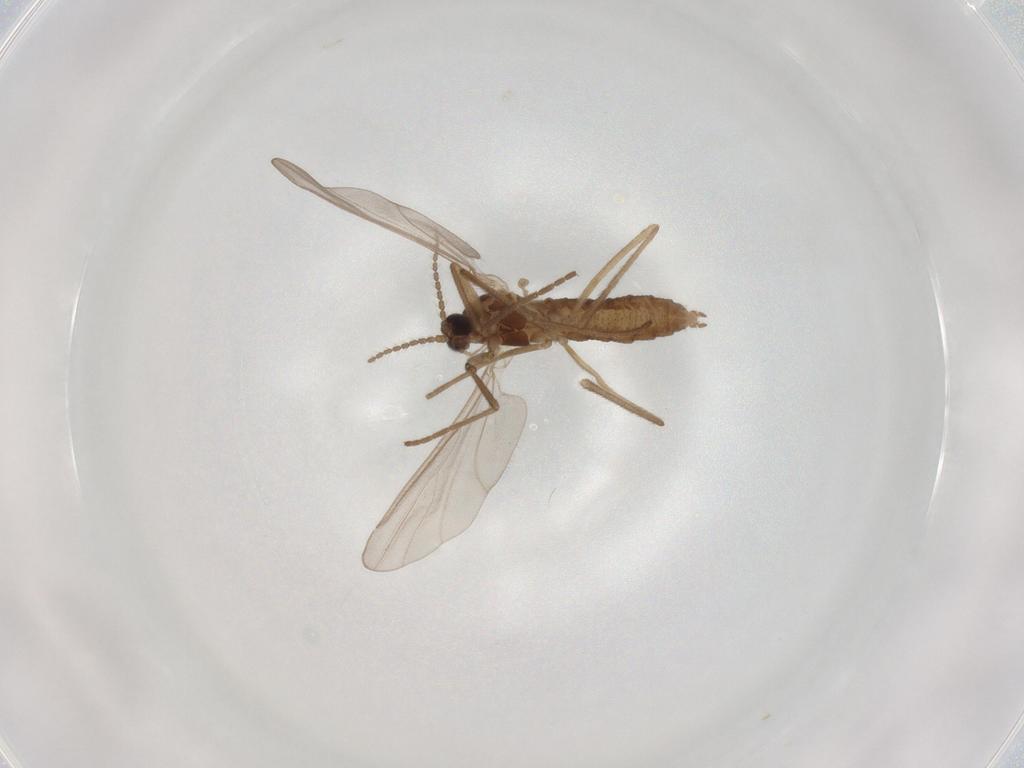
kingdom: Animalia
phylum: Arthropoda
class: Insecta
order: Diptera
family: Cecidomyiidae
